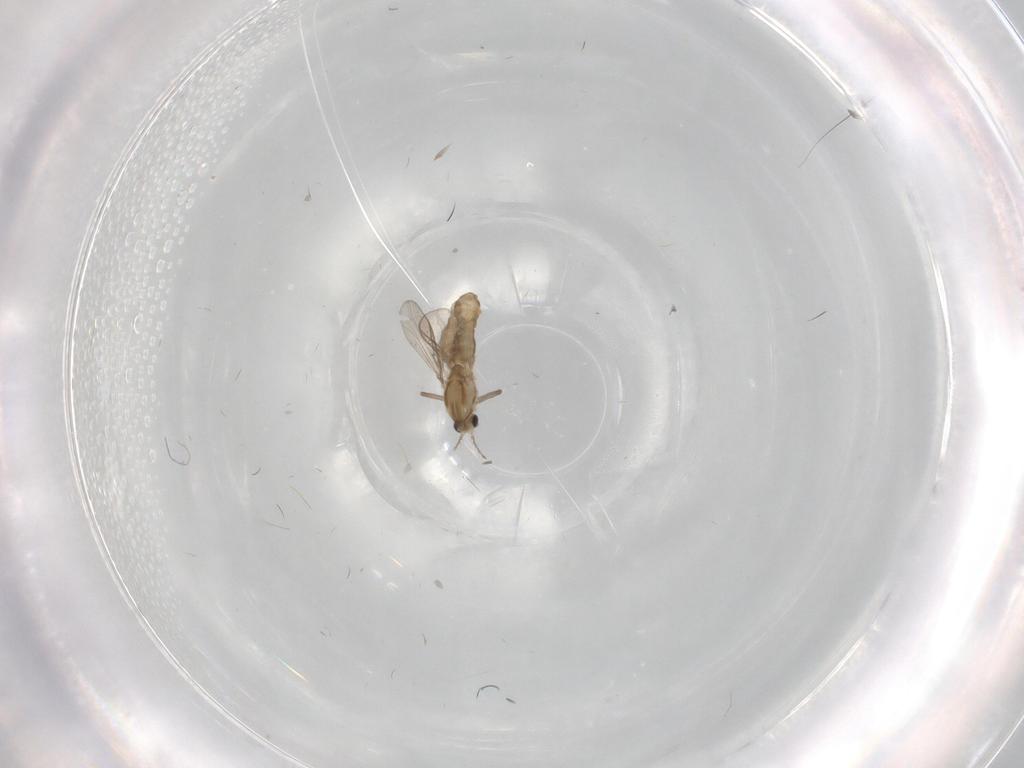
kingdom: Animalia
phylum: Arthropoda
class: Insecta
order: Diptera
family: Chironomidae
